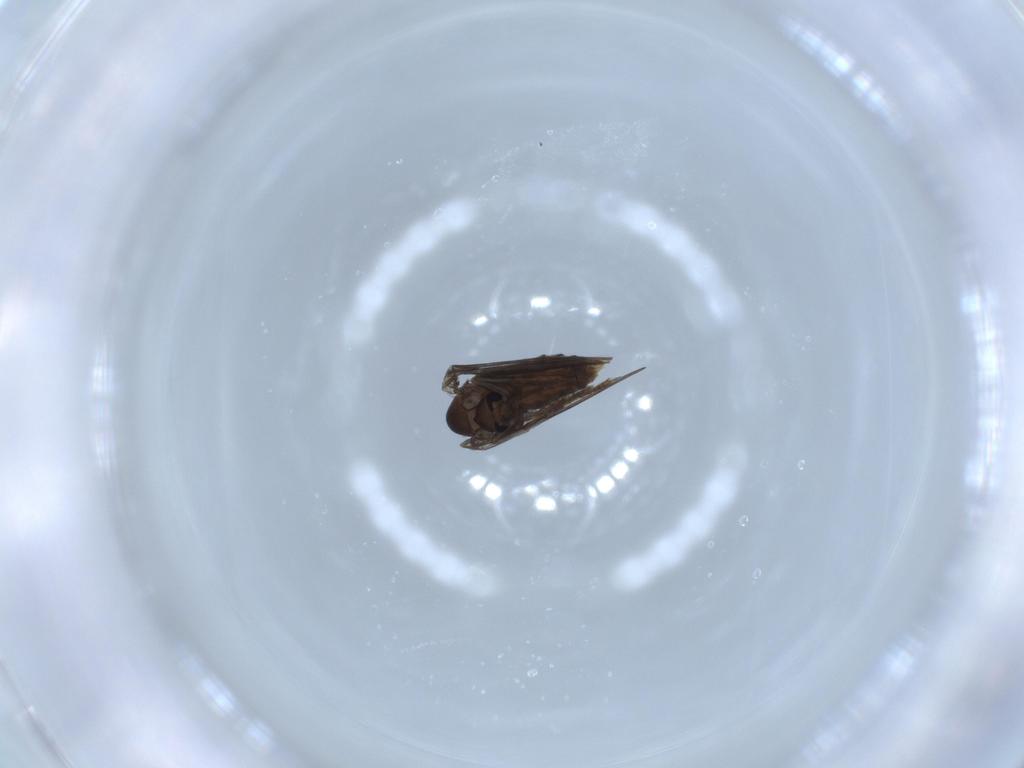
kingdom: Animalia
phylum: Arthropoda
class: Insecta
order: Diptera
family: Psychodidae
